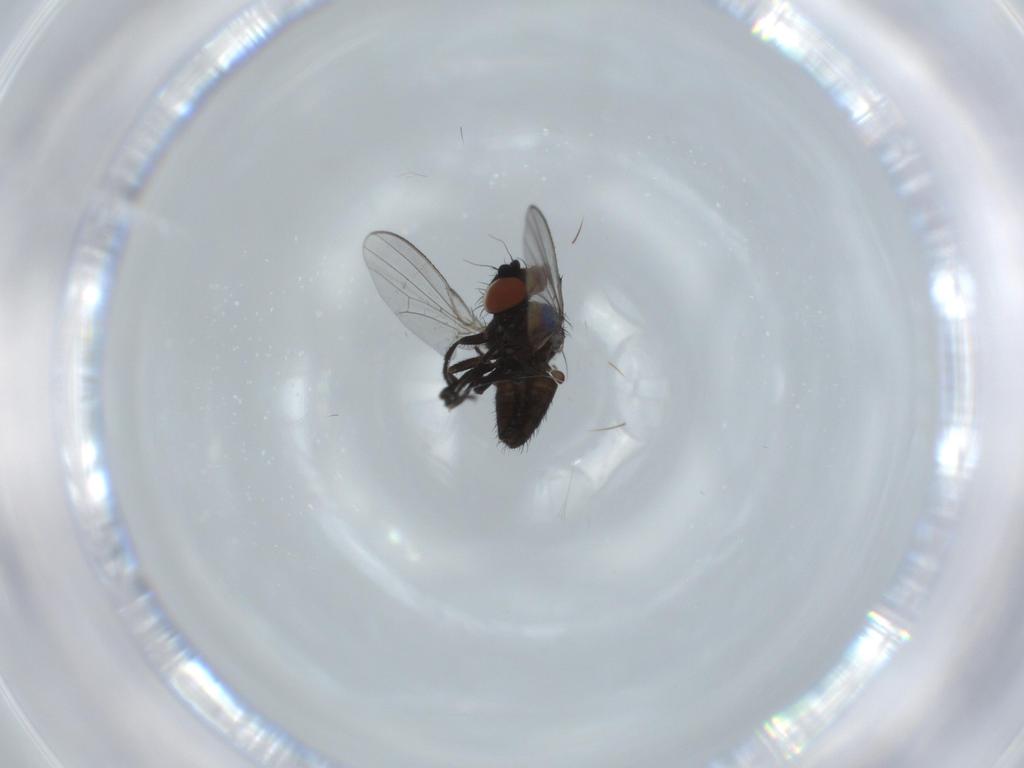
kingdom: Animalia
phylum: Arthropoda
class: Insecta
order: Diptera
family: Milichiidae
